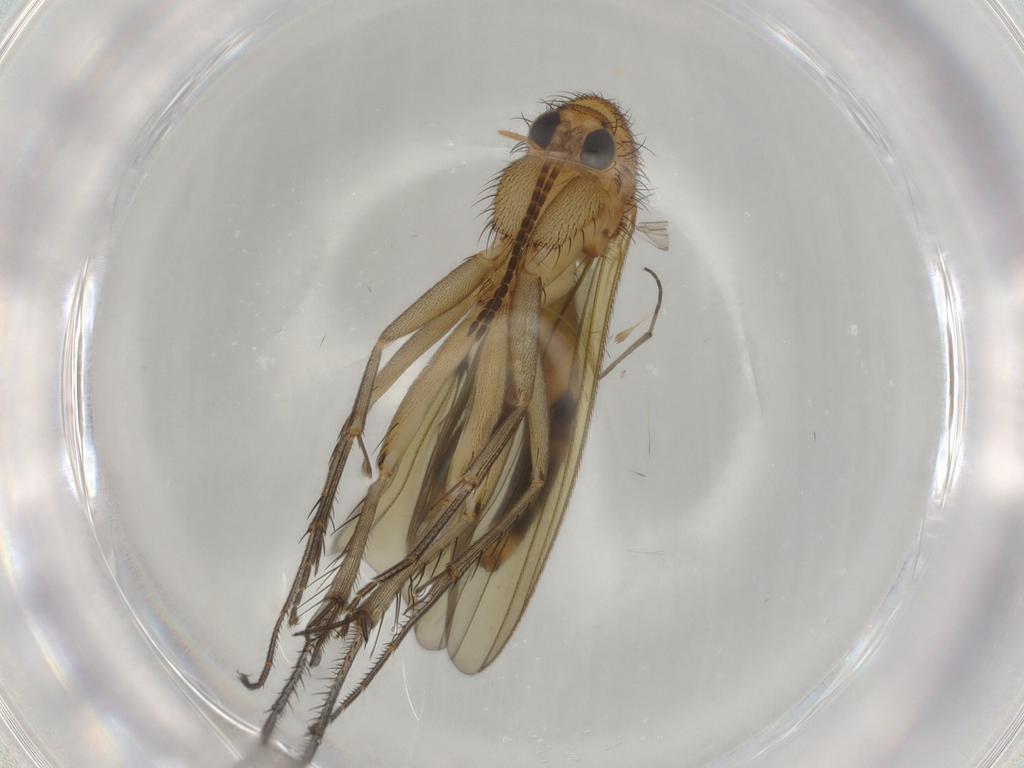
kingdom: Animalia
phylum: Arthropoda
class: Insecta
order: Diptera
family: Mycetophilidae
